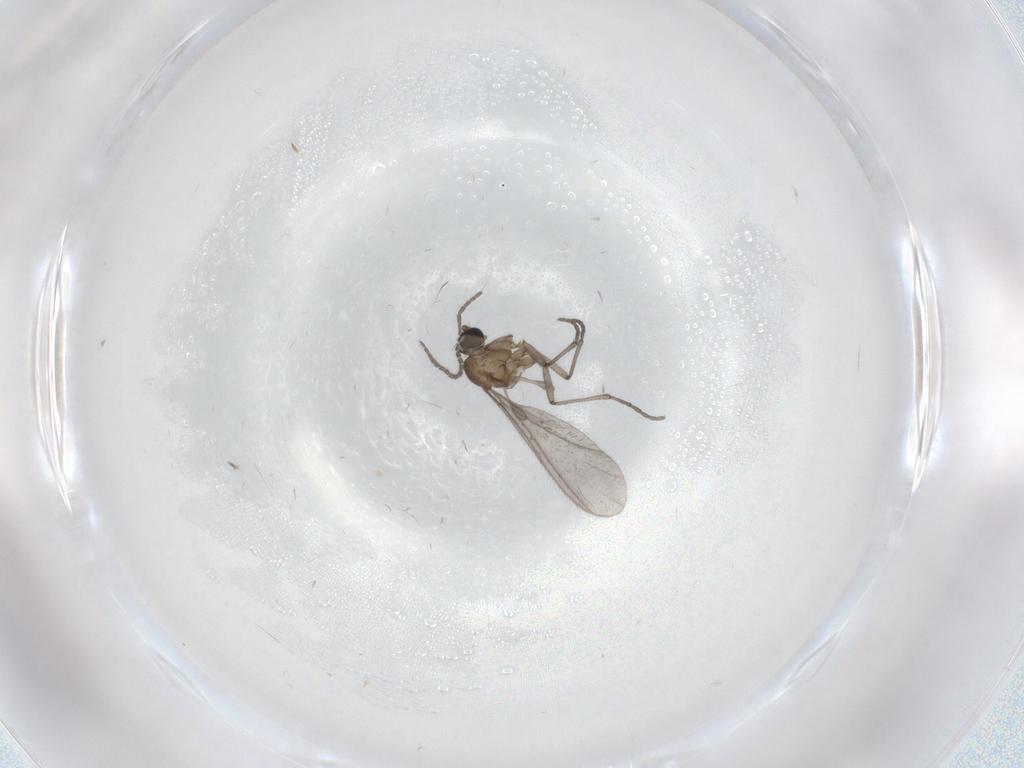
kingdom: Animalia
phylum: Arthropoda
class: Insecta
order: Diptera
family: Sciaridae
